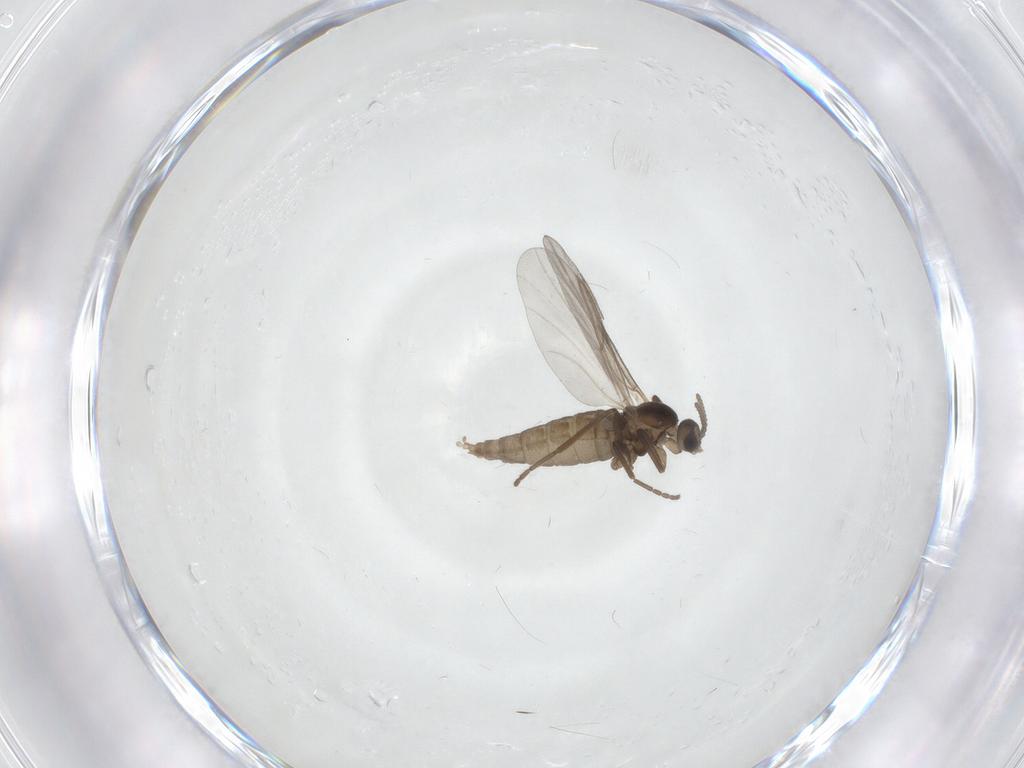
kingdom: Animalia
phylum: Arthropoda
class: Insecta
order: Diptera
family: Cecidomyiidae
